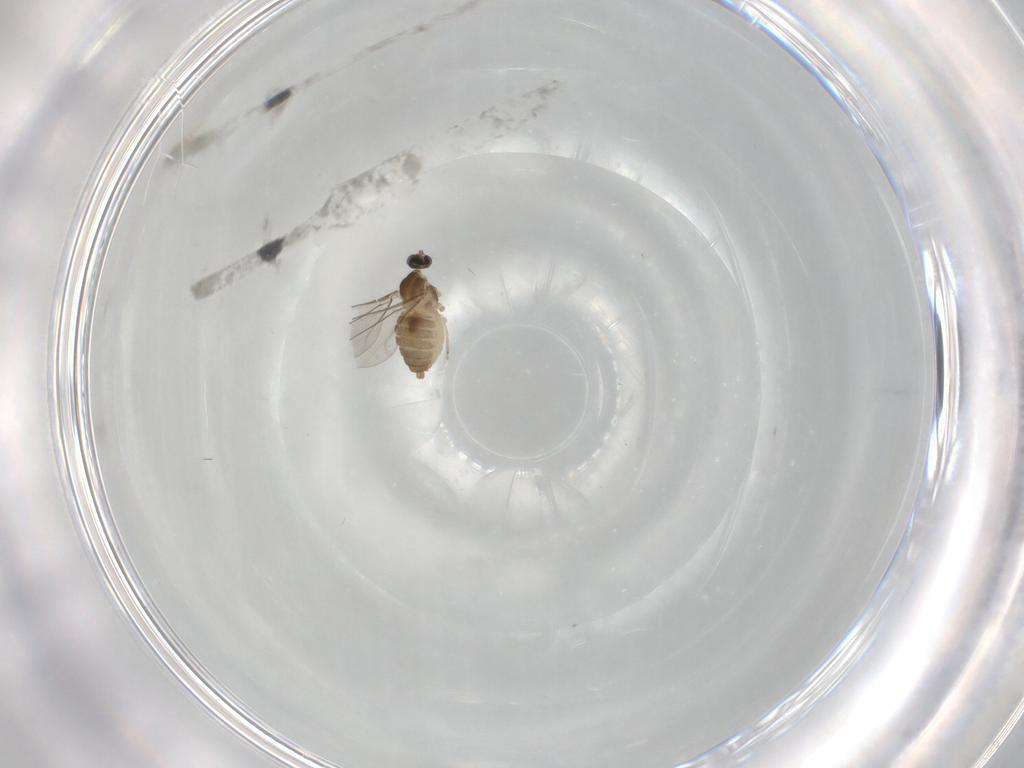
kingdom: Animalia
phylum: Arthropoda
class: Insecta
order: Diptera
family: Cecidomyiidae
